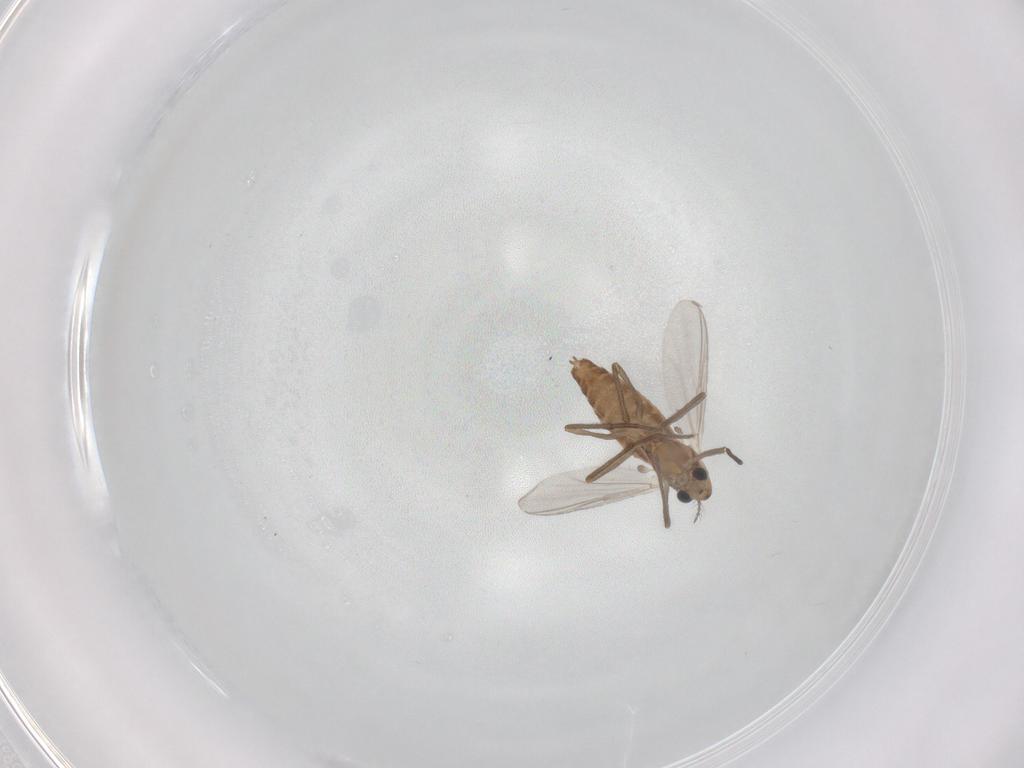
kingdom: Animalia
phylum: Arthropoda
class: Insecta
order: Diptera
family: Chironomidae
